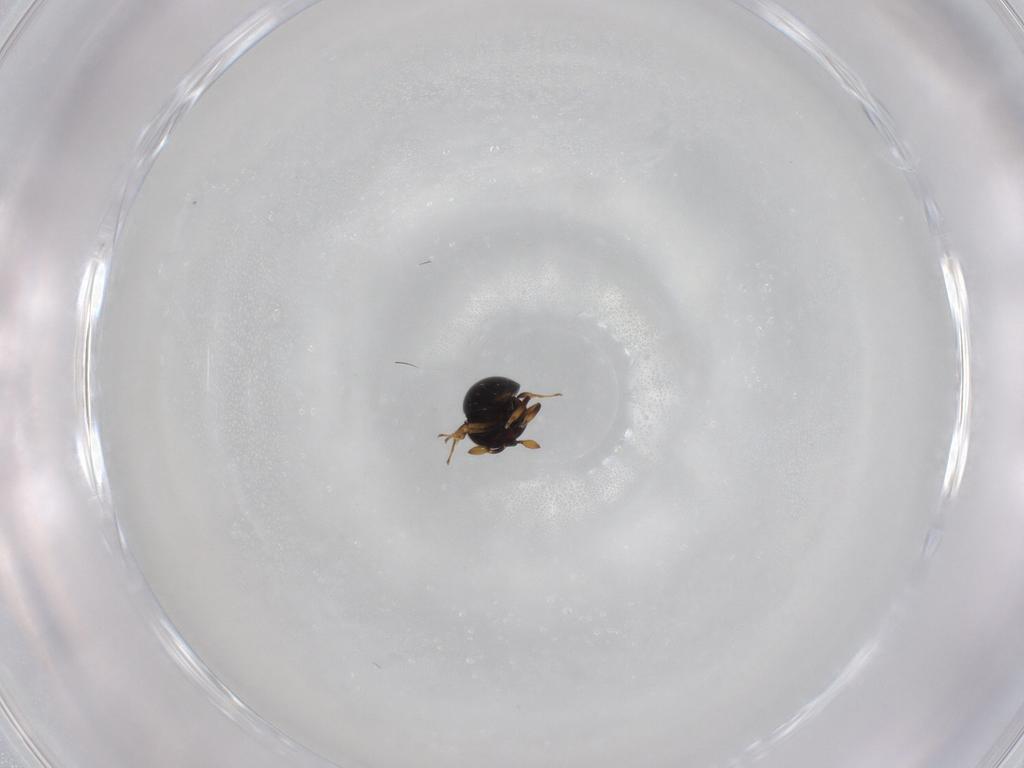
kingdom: Animalia
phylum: Arthropoda
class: Insecta
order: Hymenoptera
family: Scelionidae
